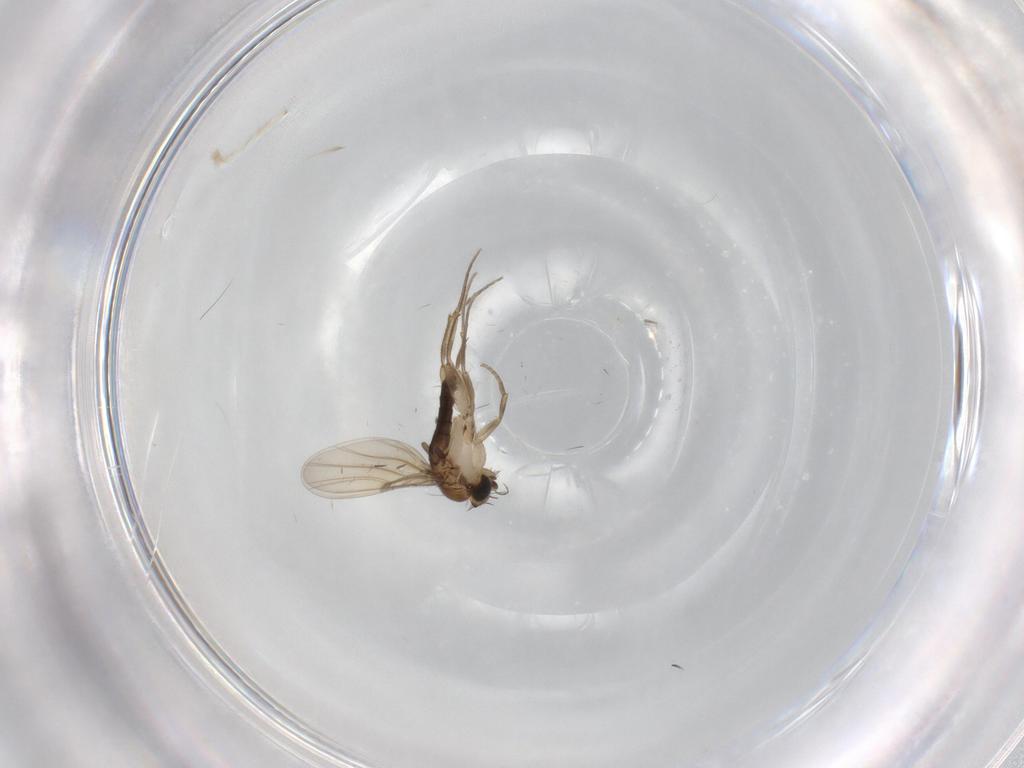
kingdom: Animalia
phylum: Arthropoda
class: Insecta
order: Diptera
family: Phoridae
